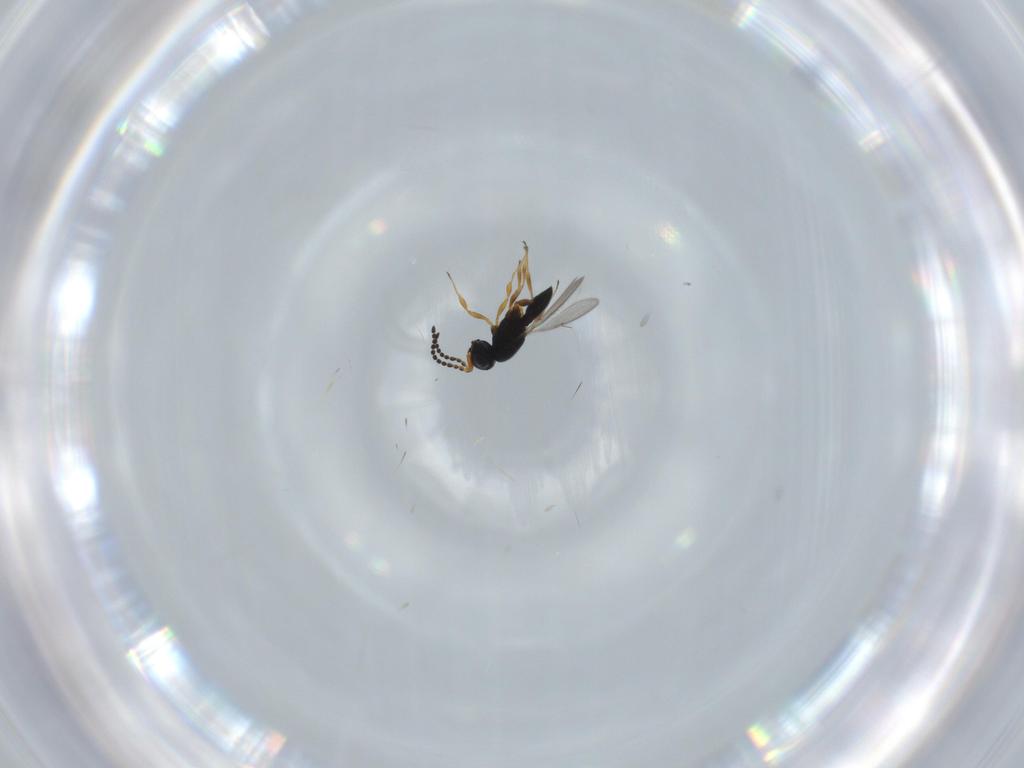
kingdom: Animalia
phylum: Arthropoda
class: Insecta
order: Hymenoptera
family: Scelionidae
